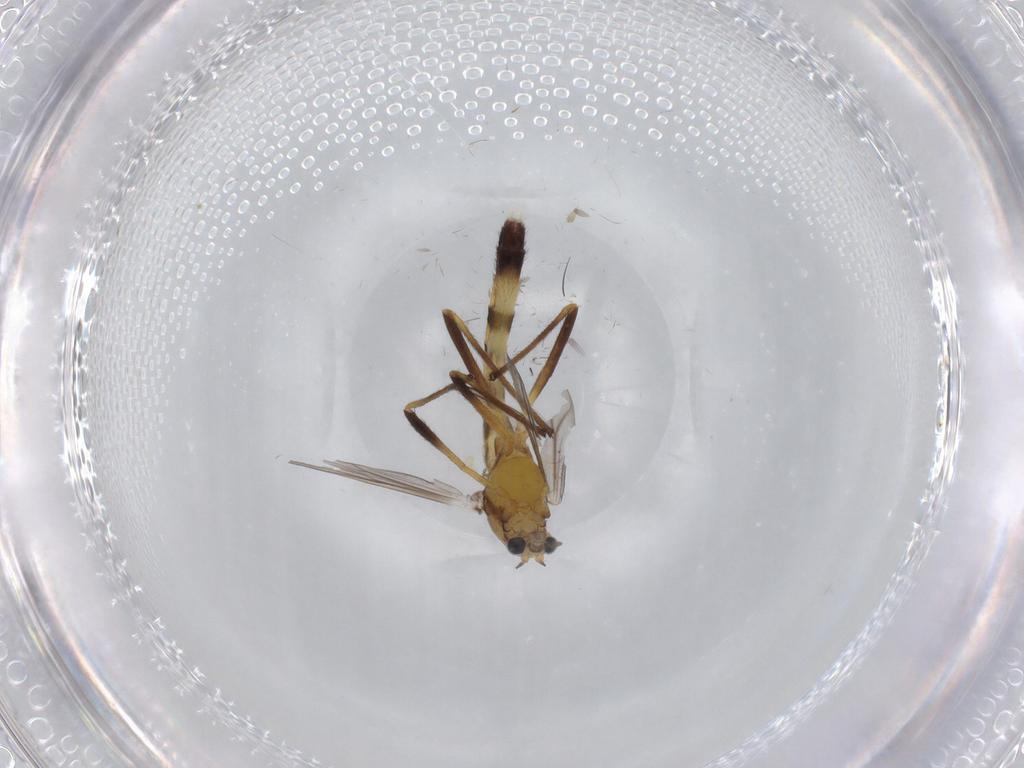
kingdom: Animalia
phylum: Arthropoda
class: Insecta
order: Diptera
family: Chironomidae
